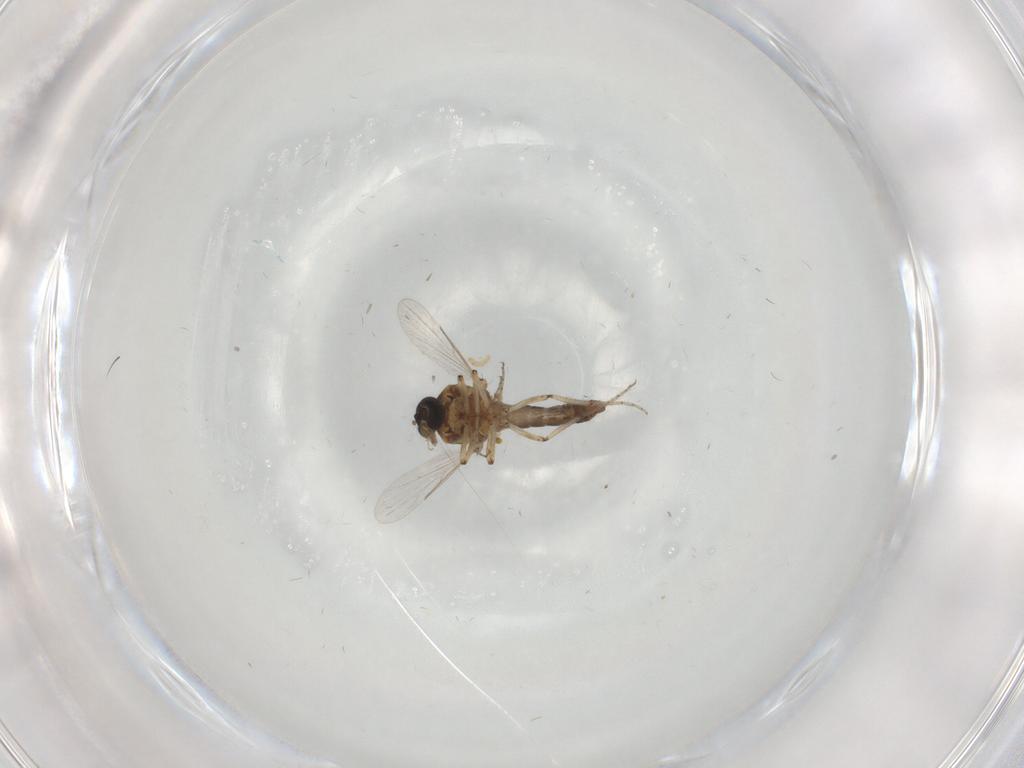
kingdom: Animalia
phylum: Arthropoda
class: Insecta
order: Diptera
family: Ceratopogonidae
